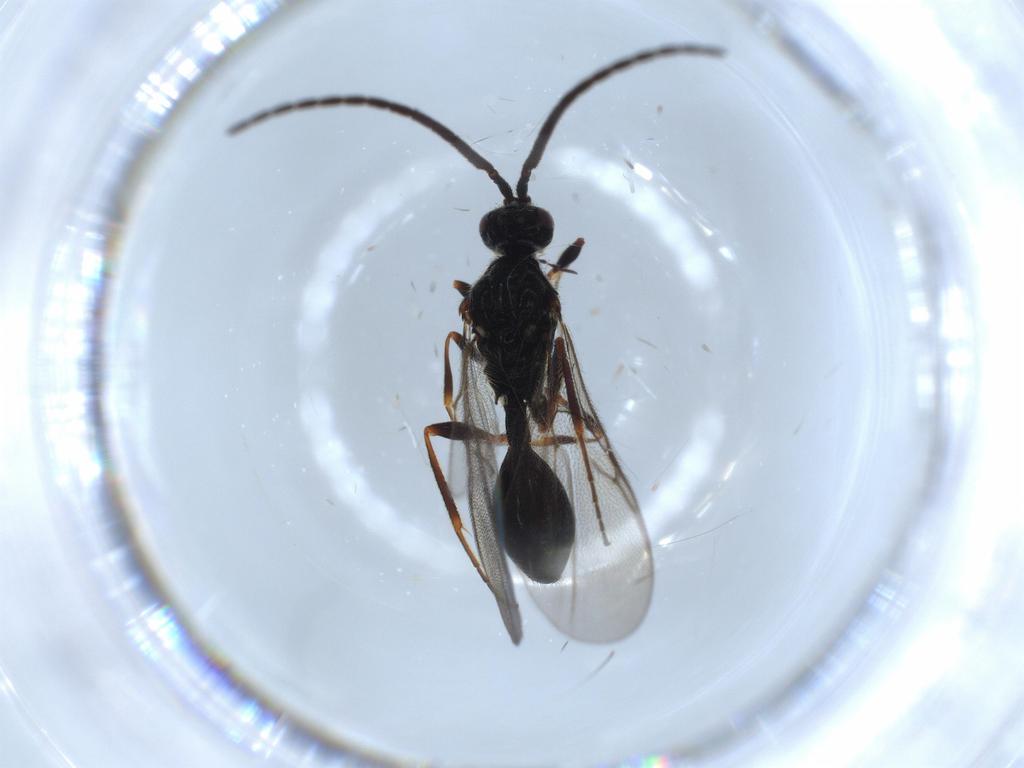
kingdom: Animalia
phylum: Arthropoda
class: Insecta
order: Hymenoptera
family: Diapriidae
